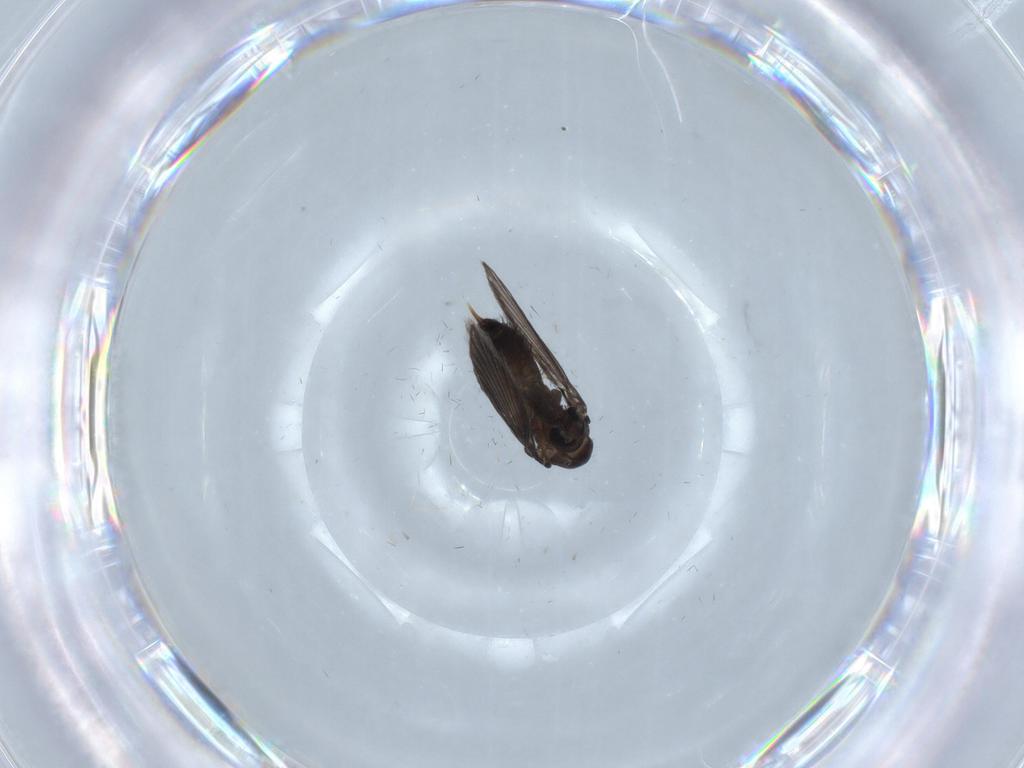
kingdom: Animalia
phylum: Arthropoda
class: Insecta
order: Diptera
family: Psychodidae
